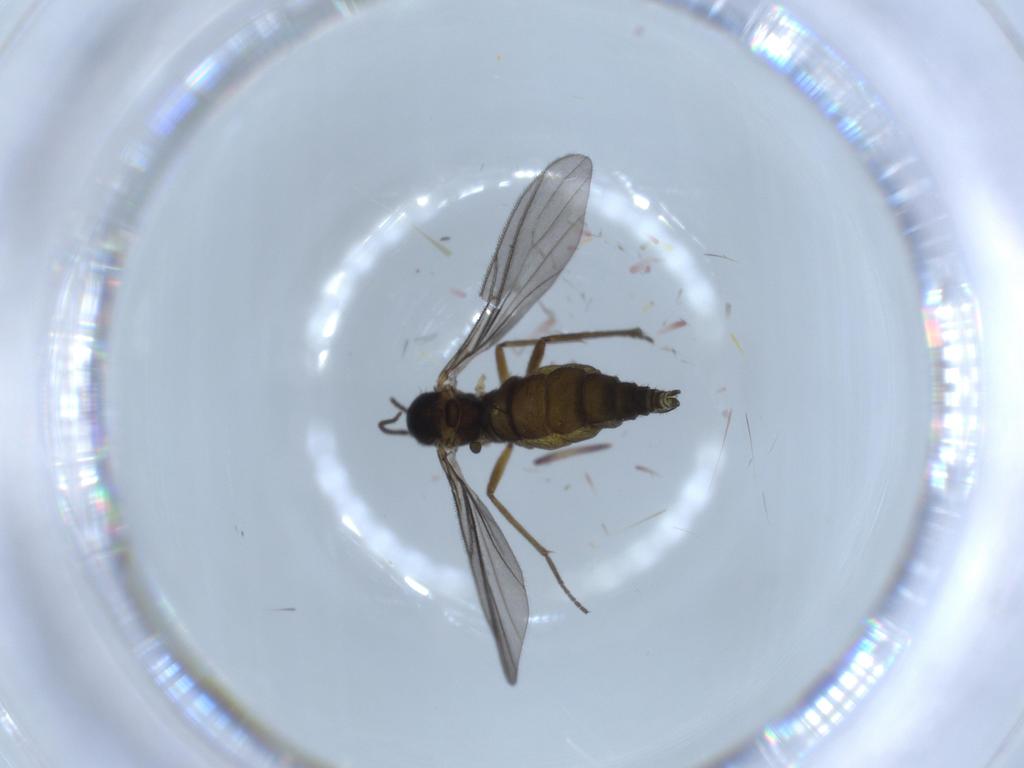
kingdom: Animalia
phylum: Arthropoda
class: Insecta
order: Diptera
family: Sciaridae
